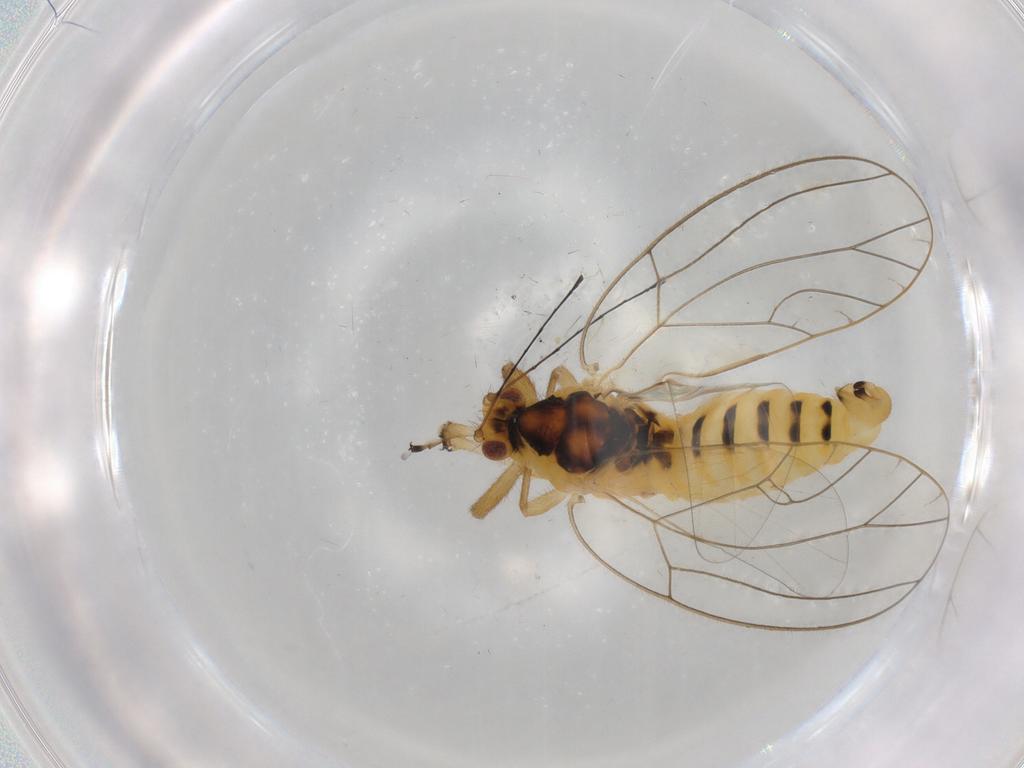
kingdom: Animalia
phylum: Arthropoda
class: Insecta
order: Hemiptera
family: Triozidae
